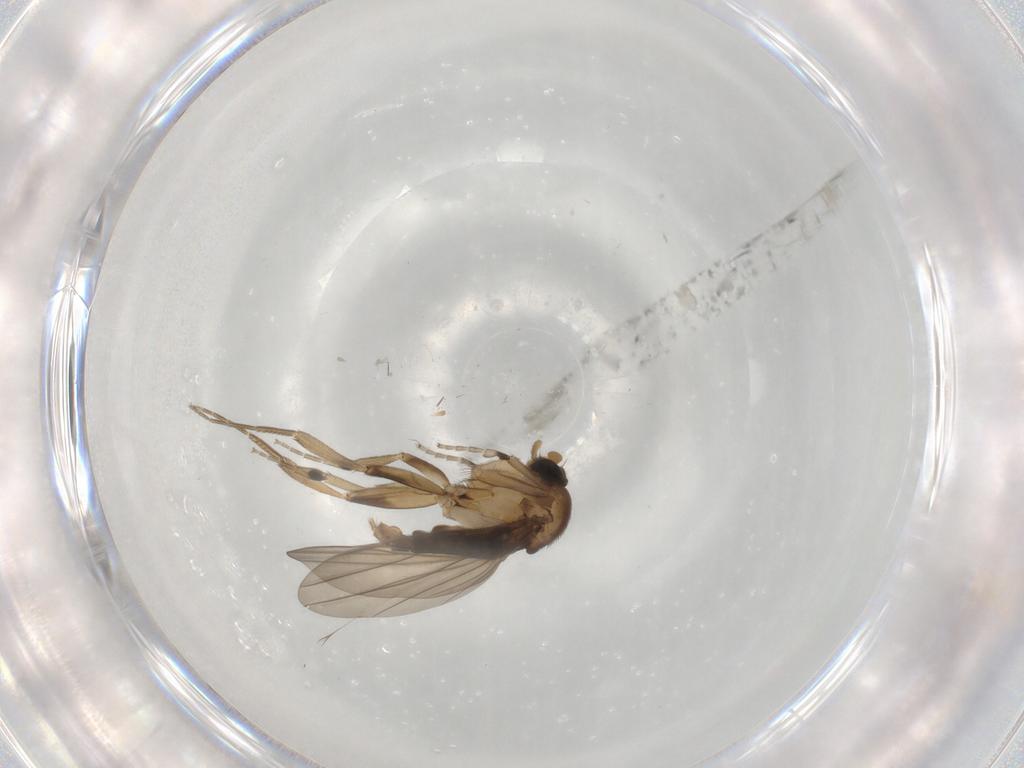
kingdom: Animalia
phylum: Arthropoda
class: Insecta
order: Diptera
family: Phoridae
